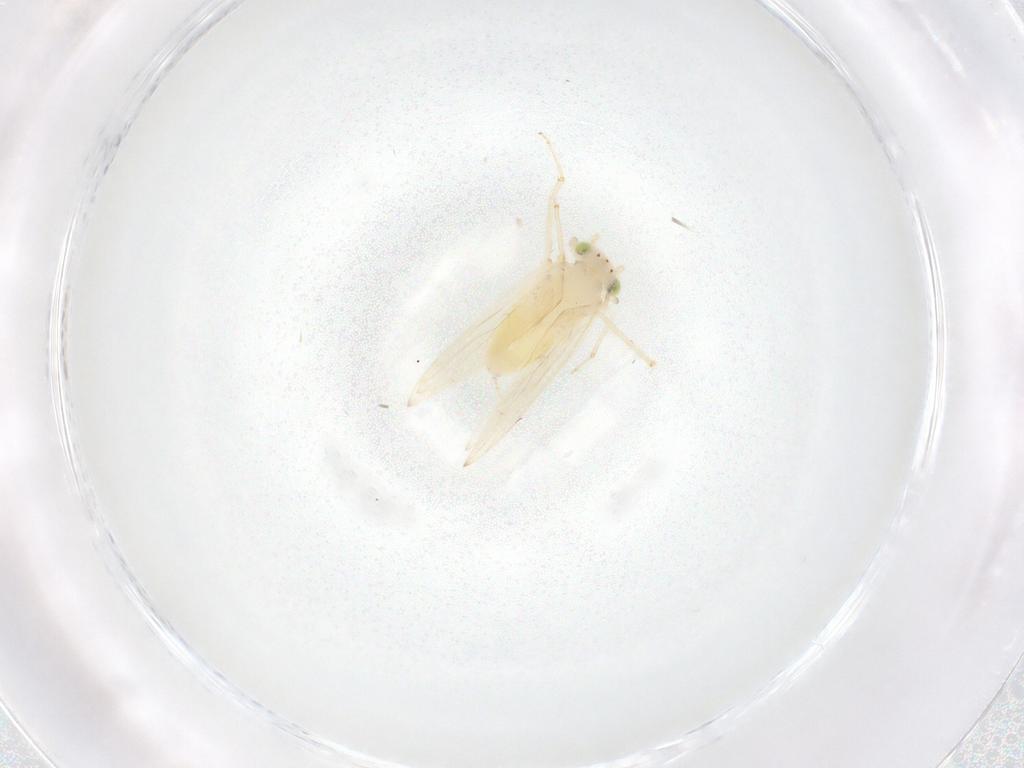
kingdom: Animalia
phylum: Arthropoda
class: Insecta
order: Psocodea
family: Lepidopsocidae
